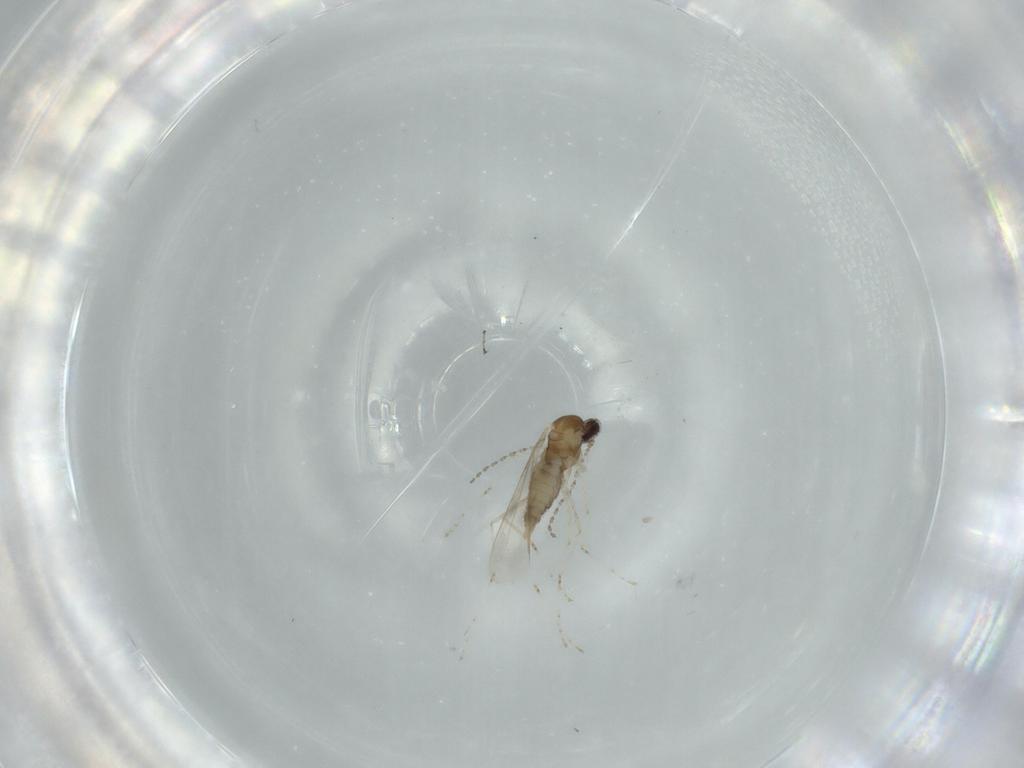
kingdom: Animalia
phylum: Arthropoda
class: Insecta
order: Diptera
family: Cecidomyiidae
